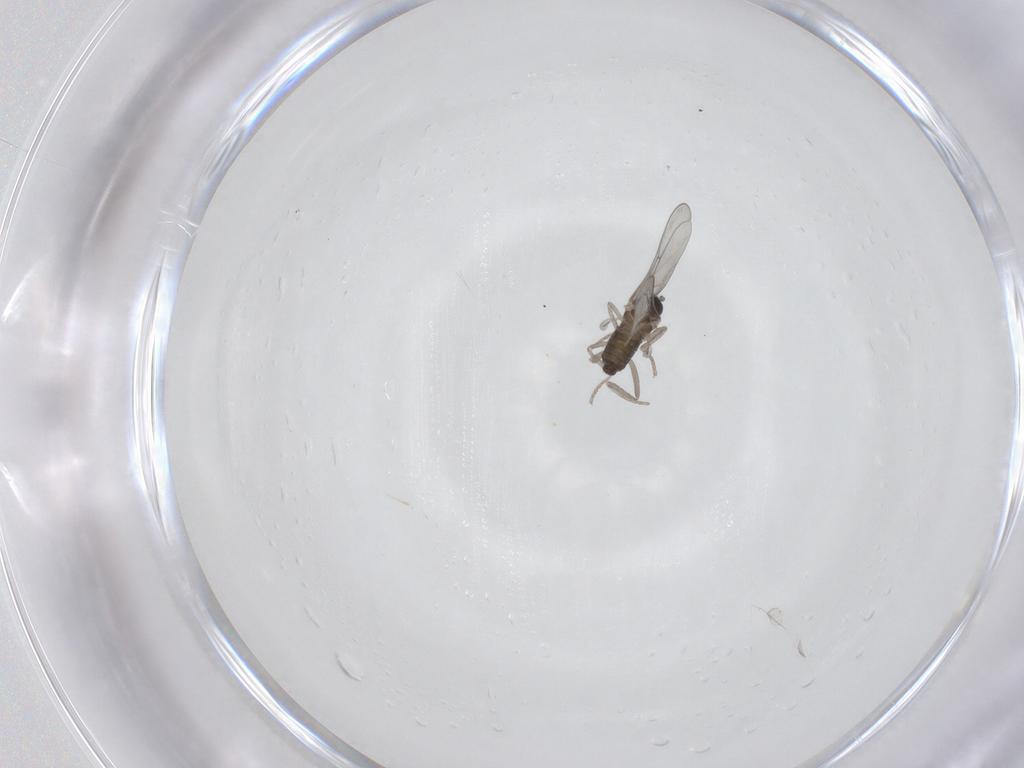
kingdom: Animalia
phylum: Arthropoda
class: Insecta
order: Diptera
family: Cecidomyiidae
